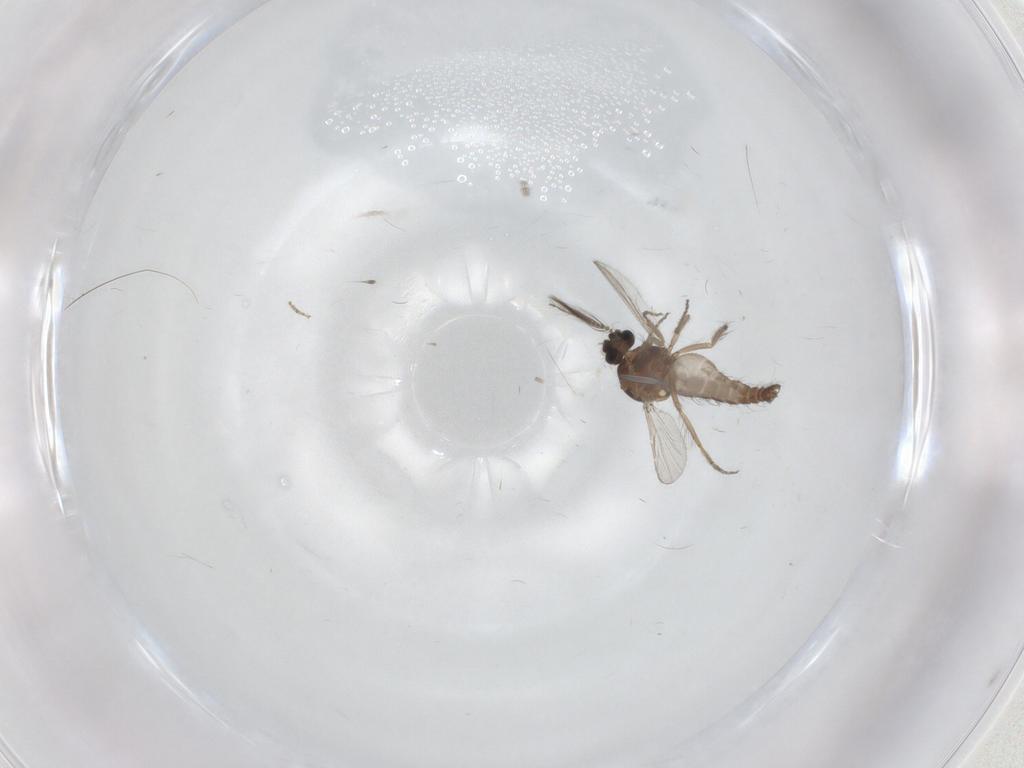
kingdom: Animalia
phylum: Arthropoda
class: Insecta
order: Diptera
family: Cecidomyiidae
